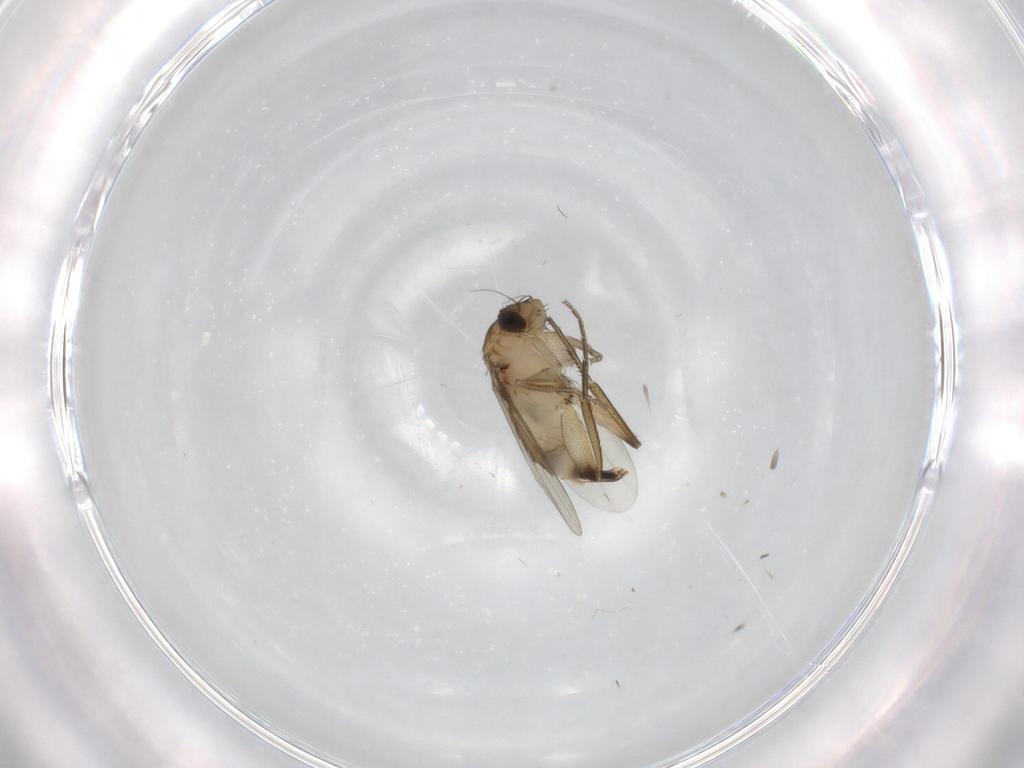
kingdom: Animalia
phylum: Arthropoda
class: Insecta
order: Diptera
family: Phoridae
